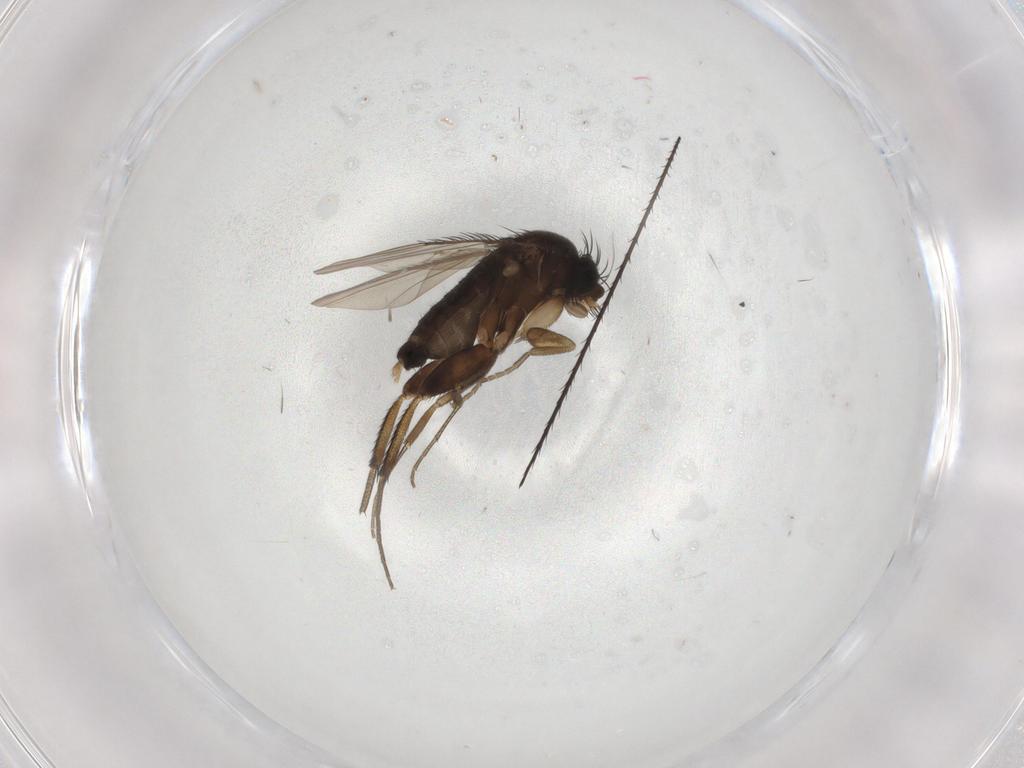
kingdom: Animalia
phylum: Arthropoda
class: Insecta
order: Diptera
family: Phoridae
